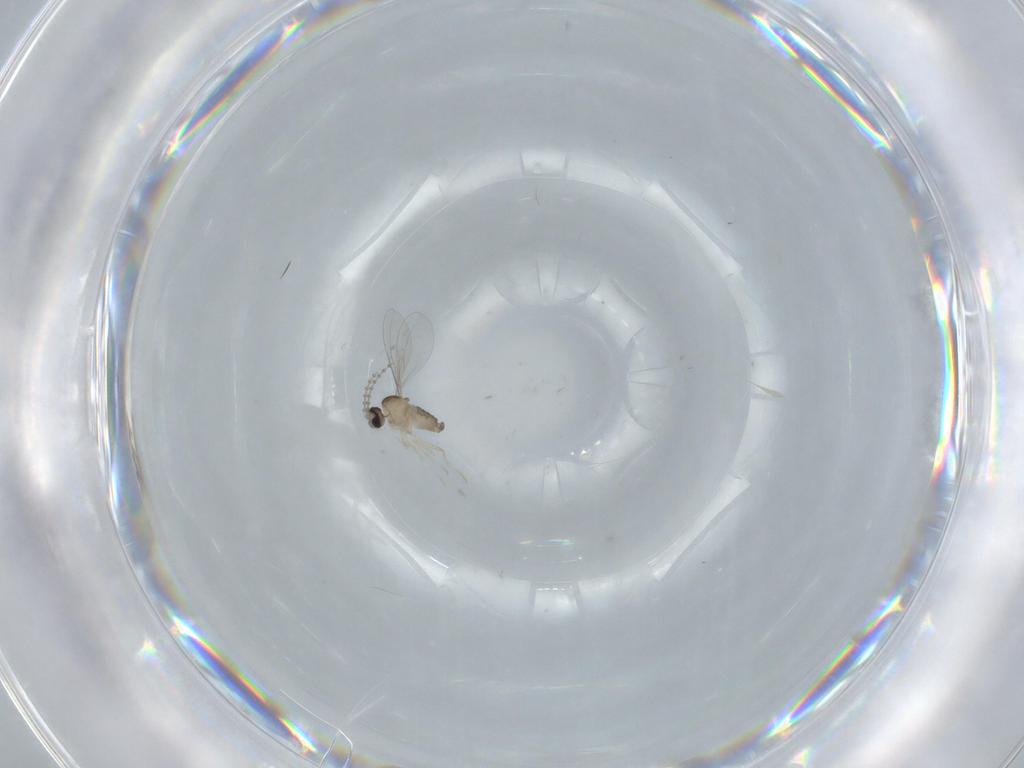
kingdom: Animalia
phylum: Arthropoda
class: Insecta
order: Diptera
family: Cecidomyiidae
